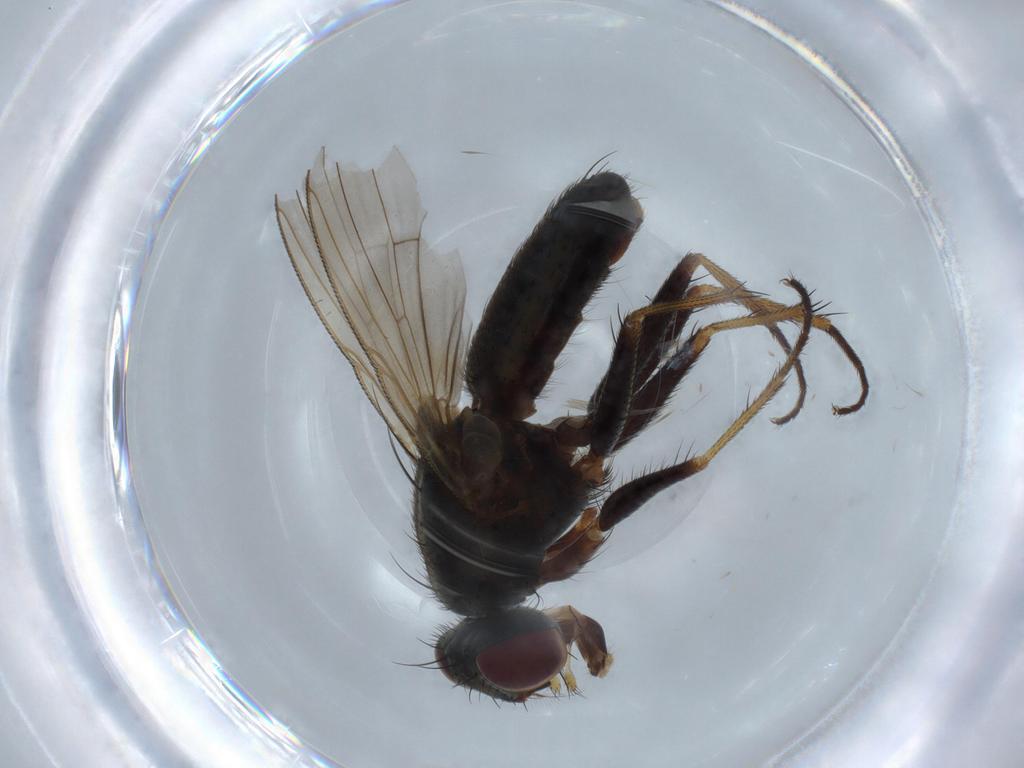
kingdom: Animalia
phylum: Arthropoda
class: Insecta
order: Diptera
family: Muscidae
